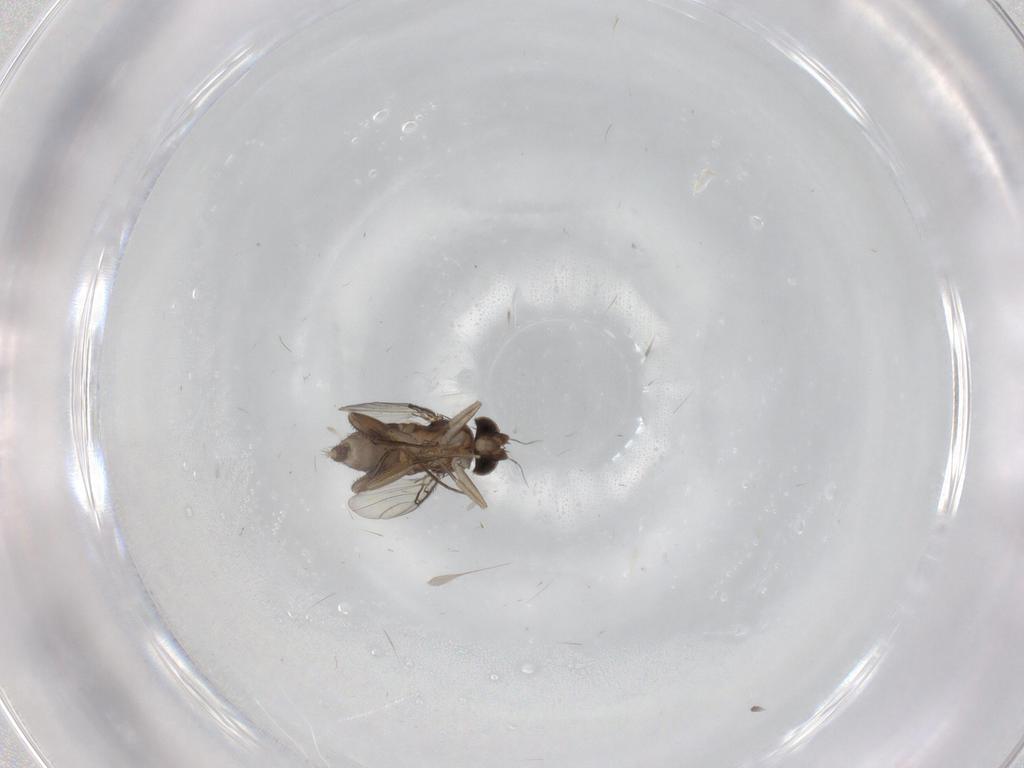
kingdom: Animalia
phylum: Arthropoda
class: Insecta
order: Diptera
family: Phoridae
